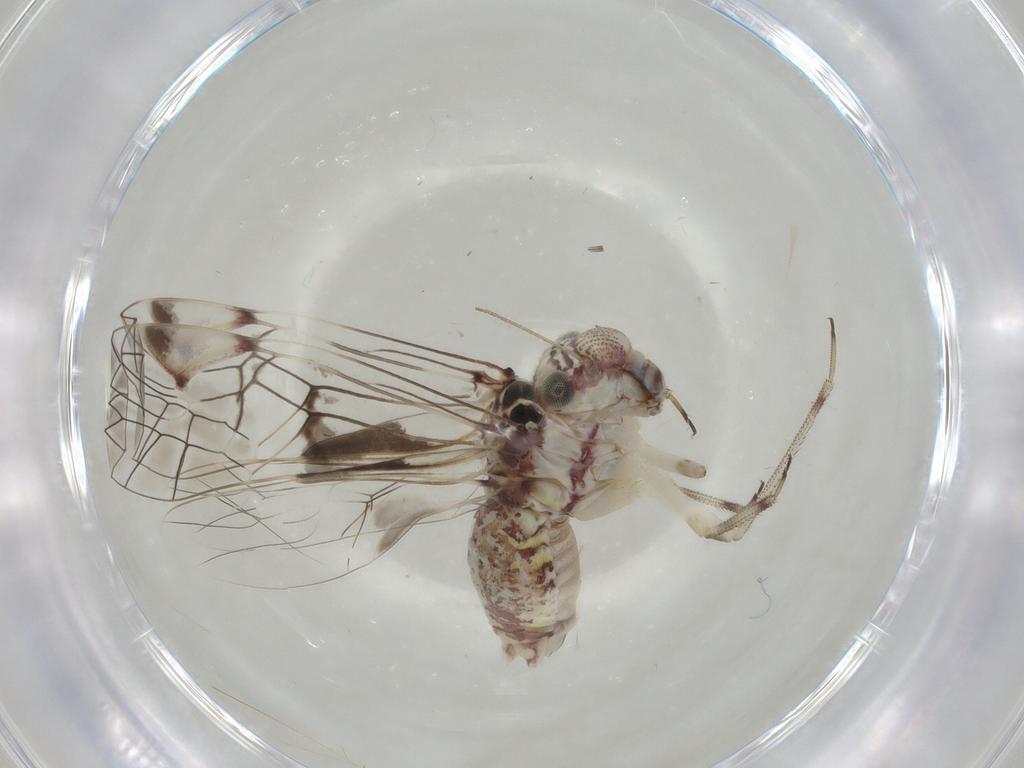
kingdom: Animalia
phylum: Arthropoda
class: Insecta
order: Psocodea
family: Psocidae
